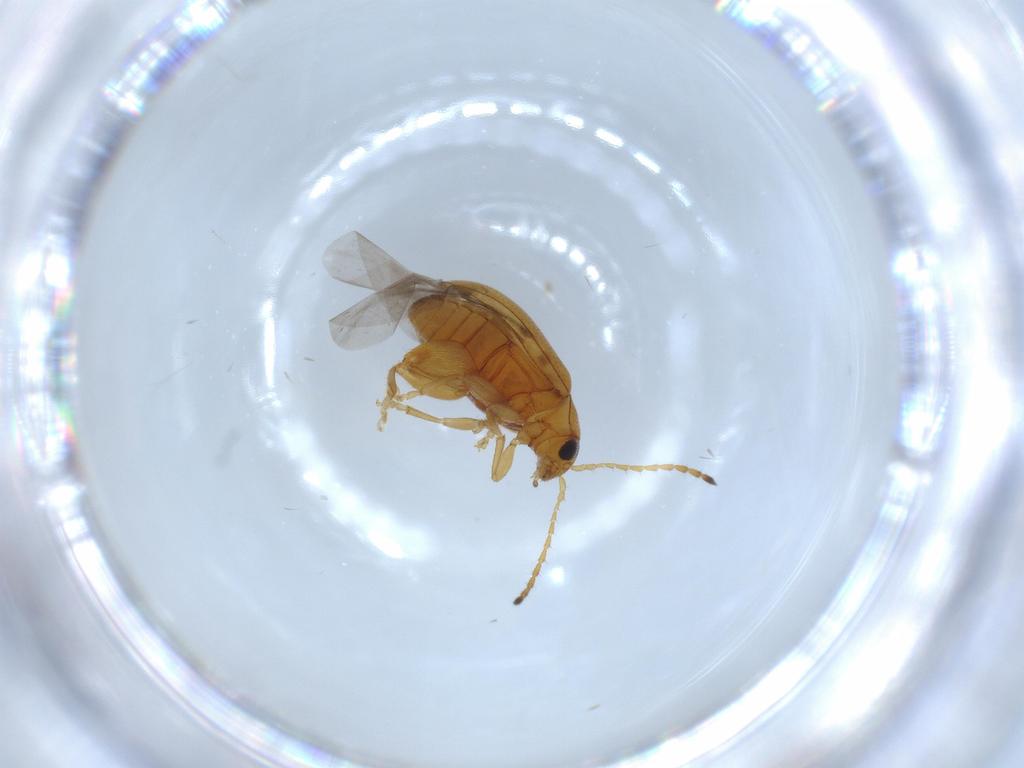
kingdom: Animalia
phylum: Arthropoda
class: Insecta
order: Coleoptera
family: Chrysomelidae
